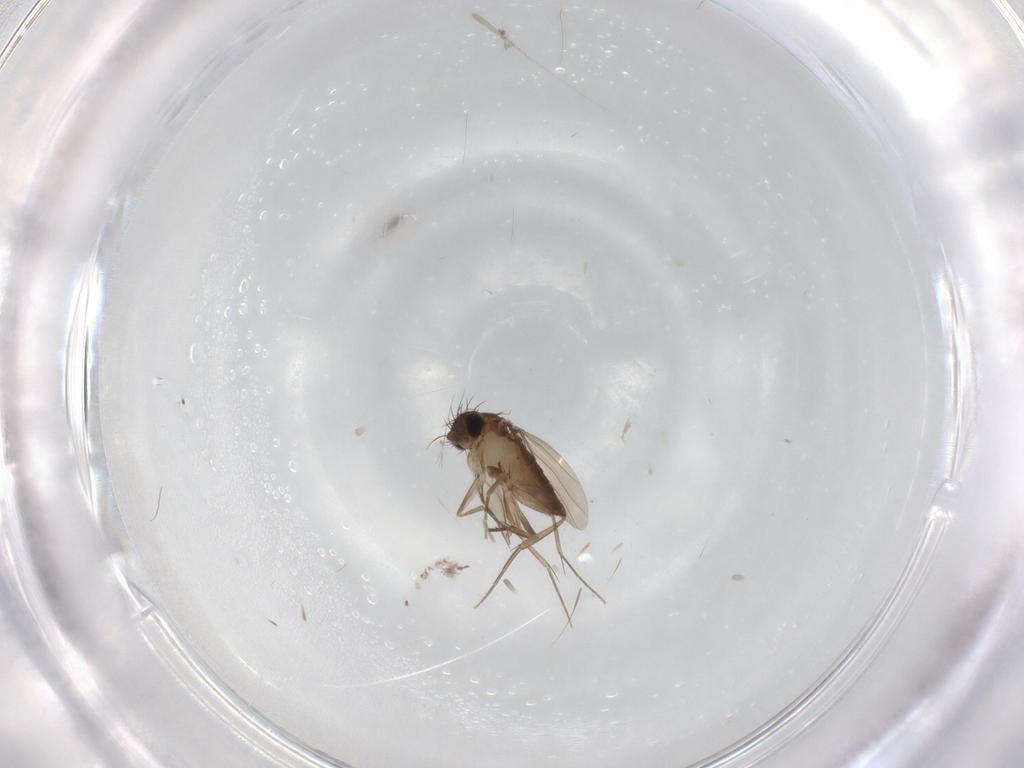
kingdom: Animalia
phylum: Arthropoda
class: Insecta
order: Diptera
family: Phoridae
